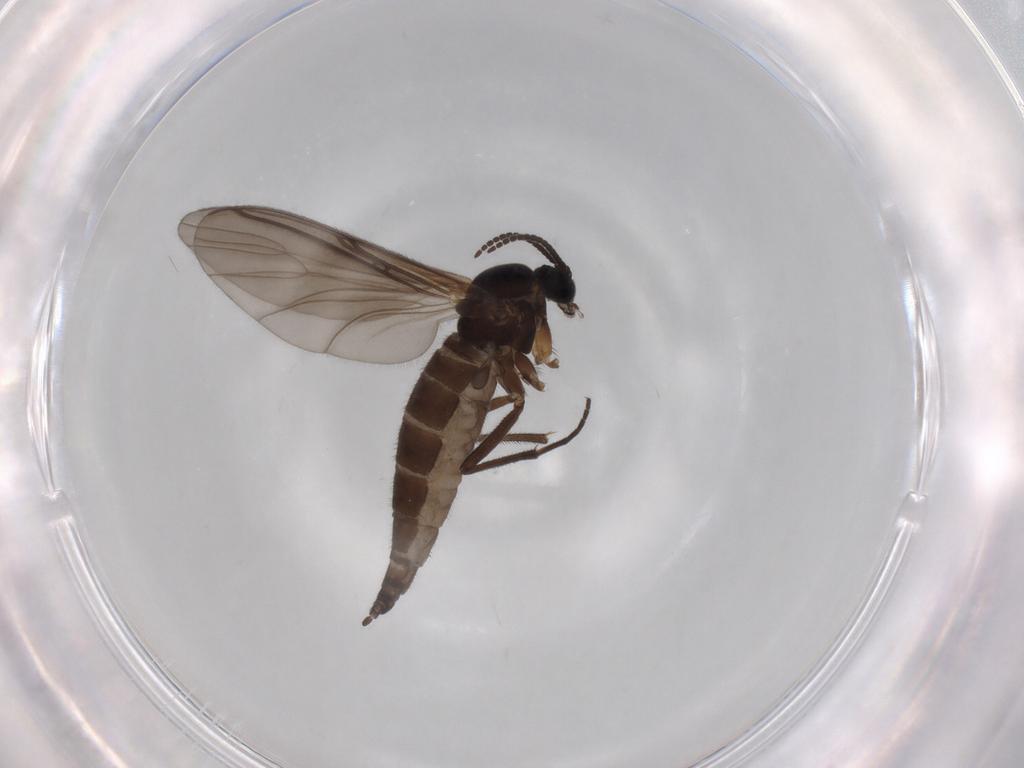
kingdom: Animalia
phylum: Arthropoda
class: Insecta
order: Diptera
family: Sciaridae
